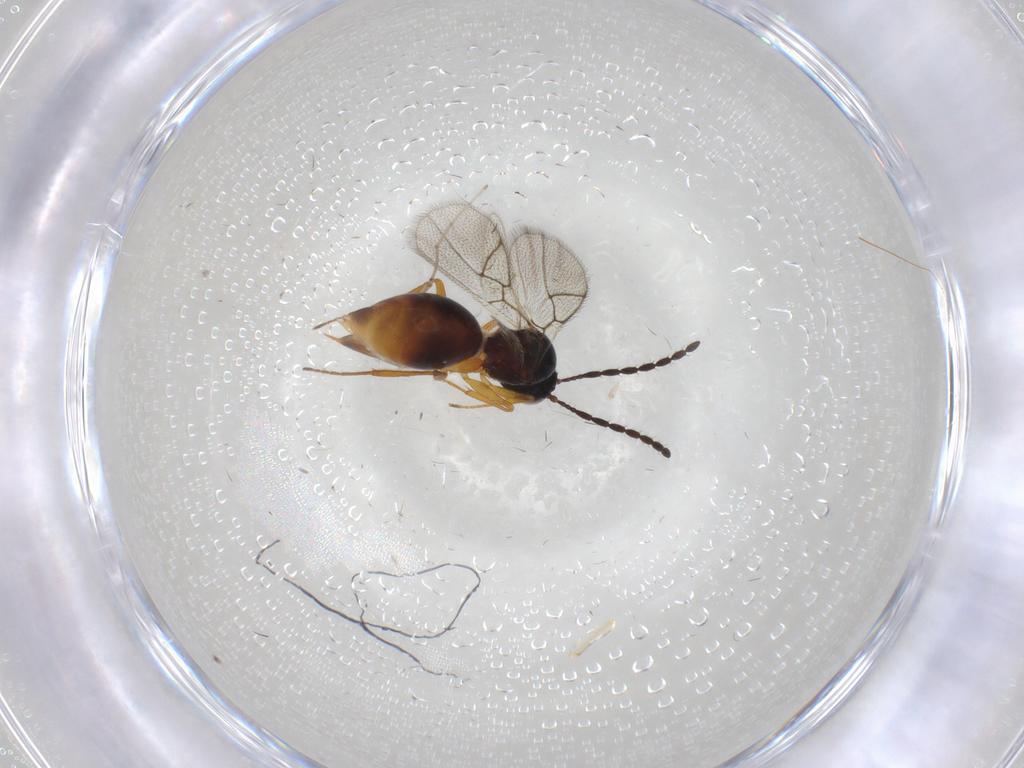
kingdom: Animalia
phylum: Arthropoda
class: Insecta
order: Hymenoptera
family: Figitidae
